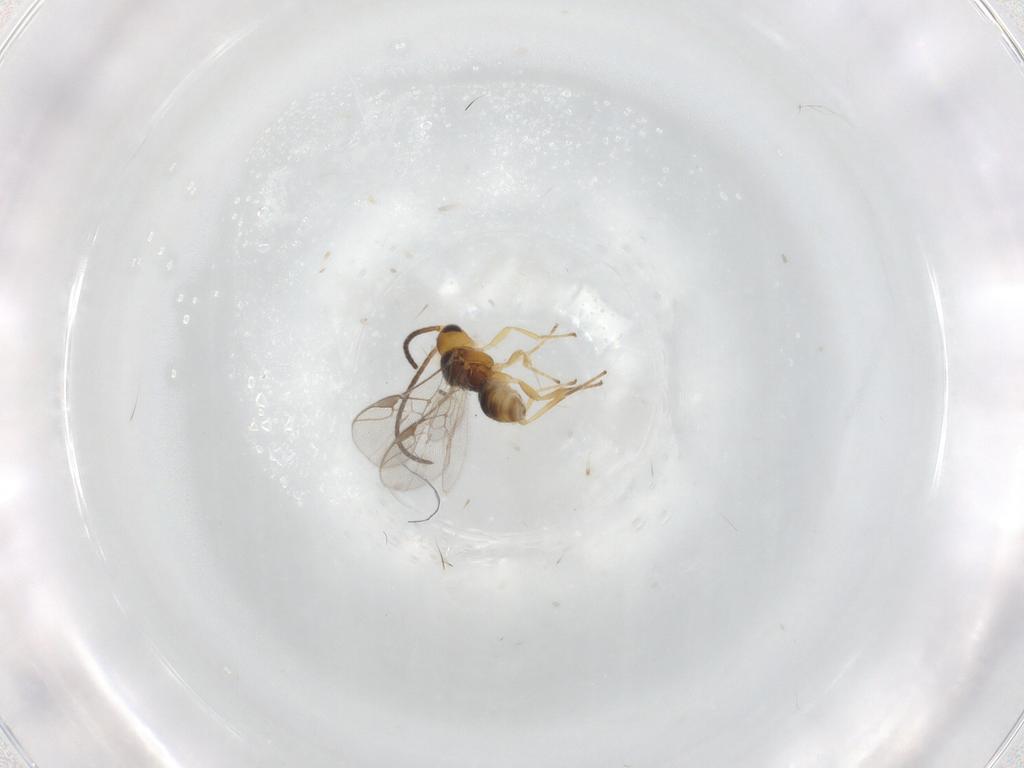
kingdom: Animalia
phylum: Arthropoda
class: Insecta
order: Hymenoptera
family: Braconidae
